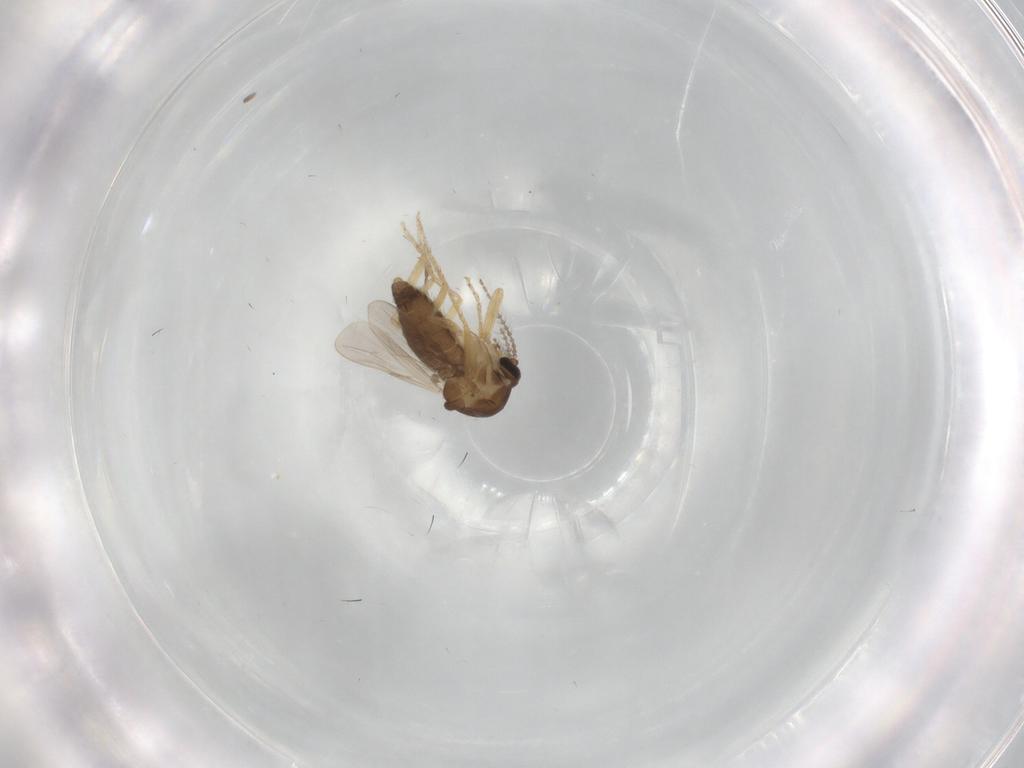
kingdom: Animalia
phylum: Arthropoda
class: Insecta
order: Diptera
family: Ceratopogonidae
